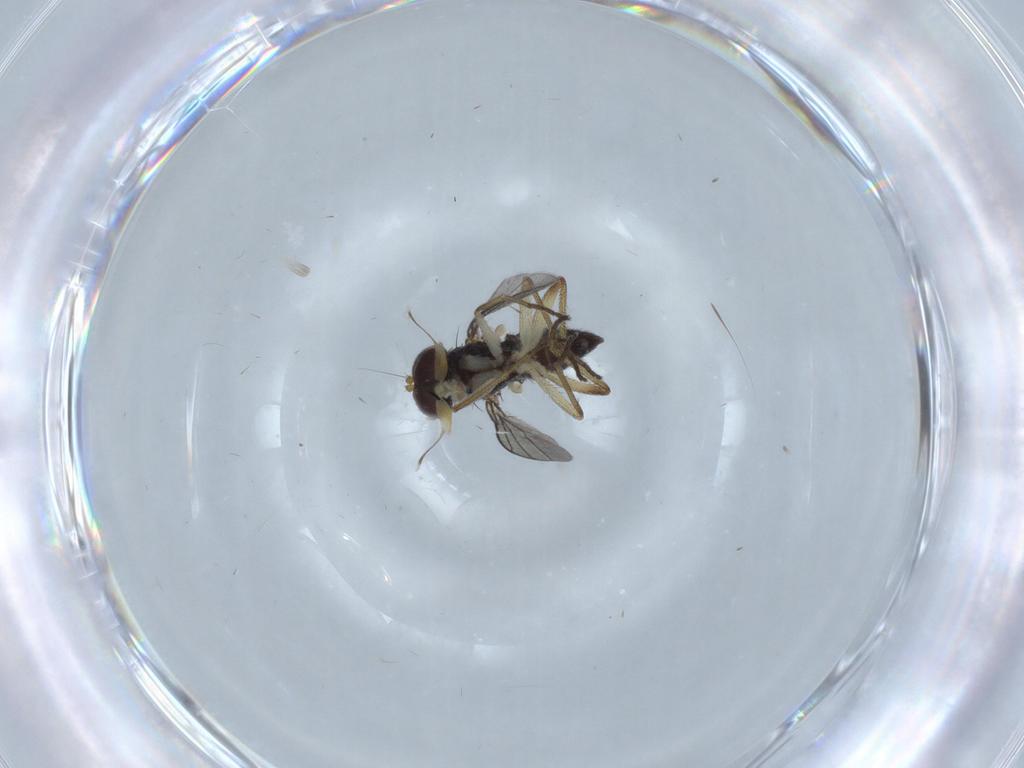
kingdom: Animalia
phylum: Arthropoda
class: Insecta
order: Diptera
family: Dolichopodidae
